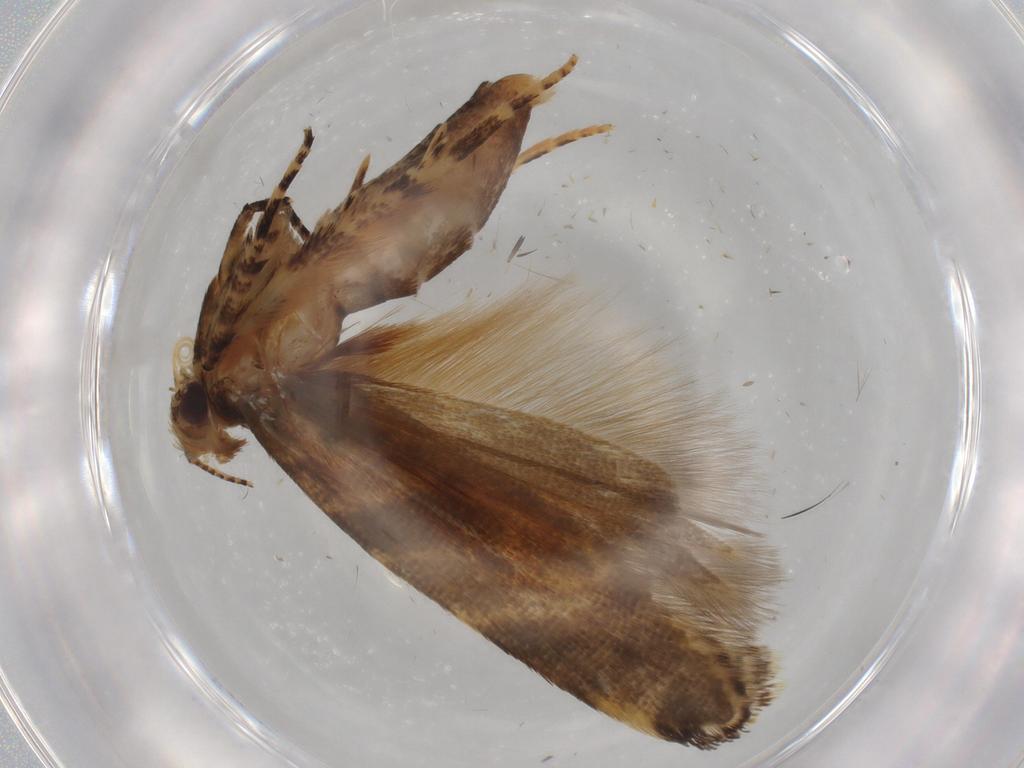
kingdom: Animalia
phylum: Arthropoda
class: Insecta
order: Lepidoptera
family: Gelechiidae
